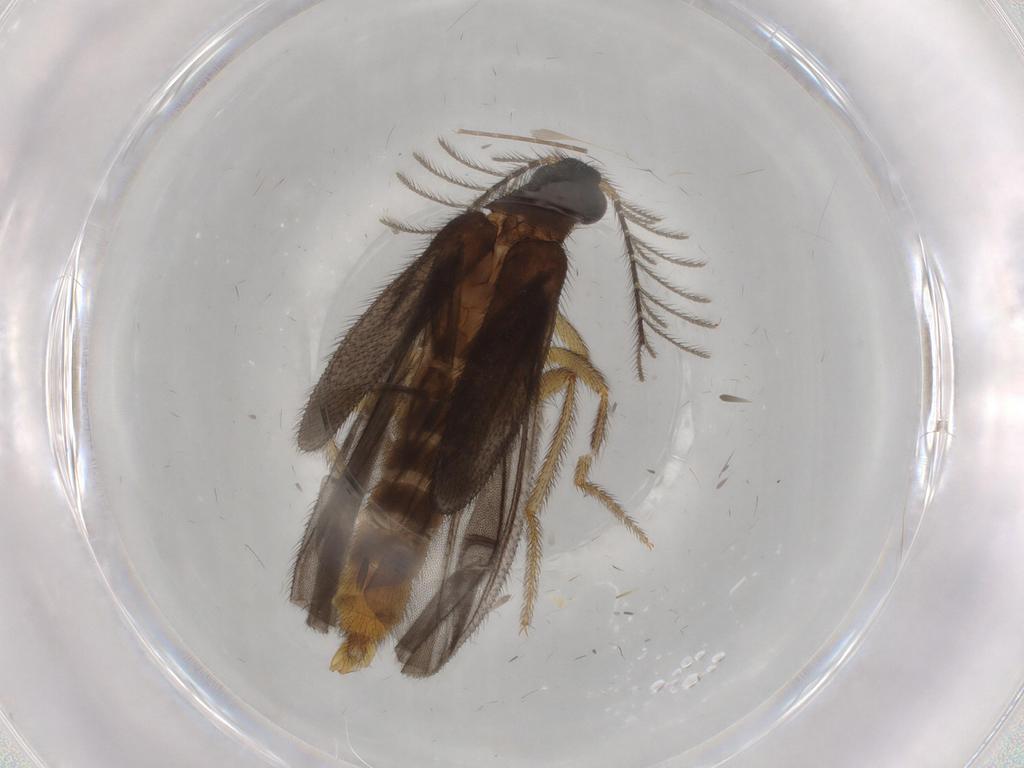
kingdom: Animalia
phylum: Arthropoda
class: Insecta
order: Coleoptera
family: Phengodidae
